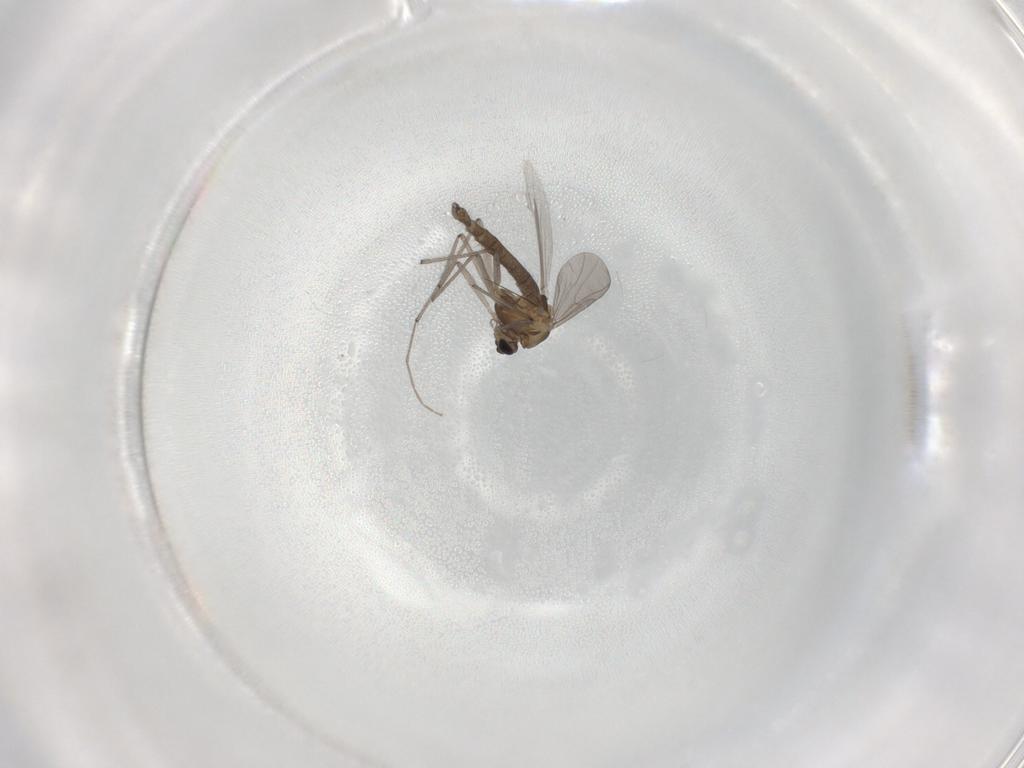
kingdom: Animalia
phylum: Arthropoda
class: Insecta
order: Diptera
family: Chironomidae
